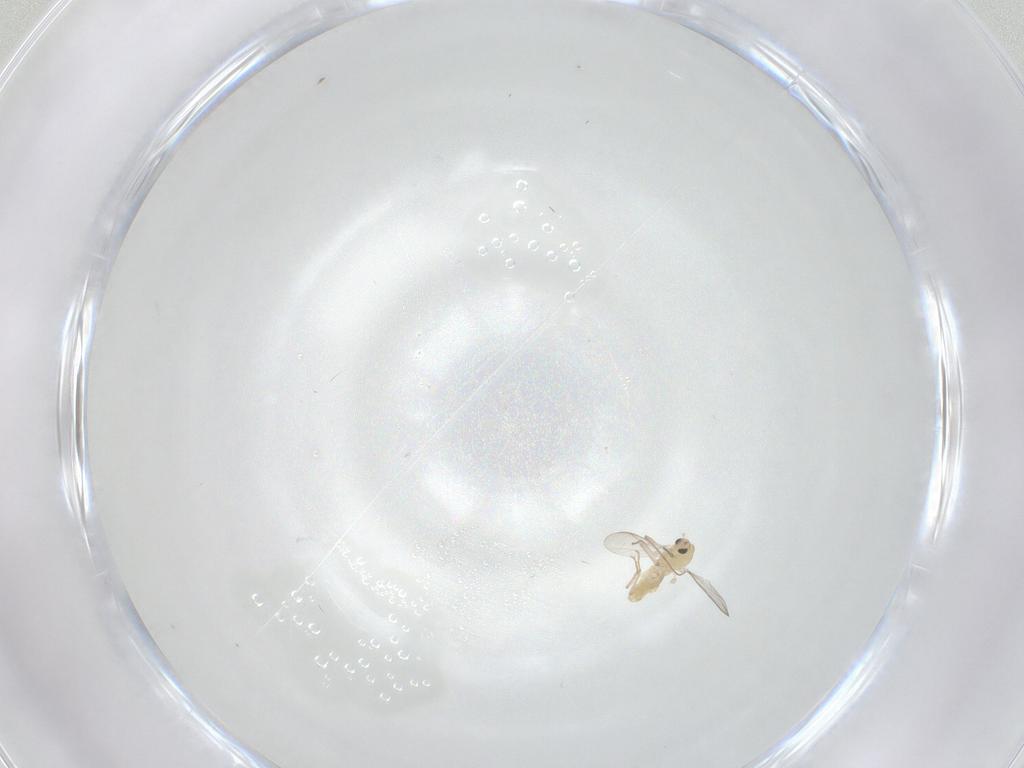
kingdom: Animalia
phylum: Arthropoda
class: Insecta
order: Diptera
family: Chironomidae
